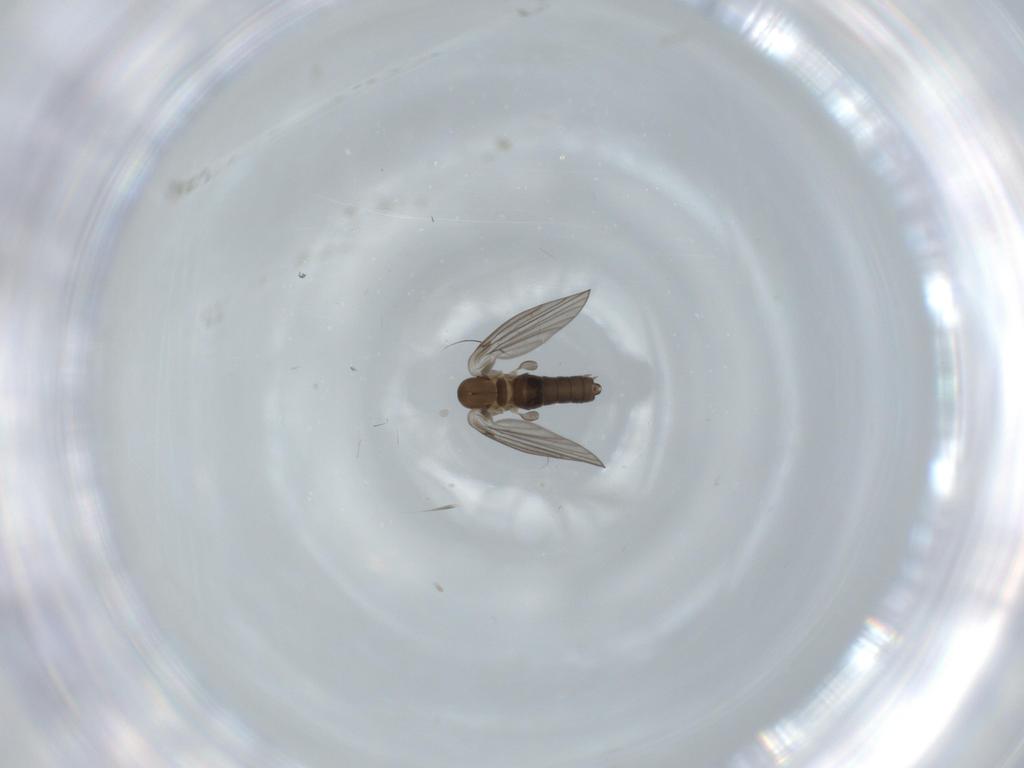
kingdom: Animalia
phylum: Arthropoda
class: Insecta
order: Diptera
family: Psychodidae
